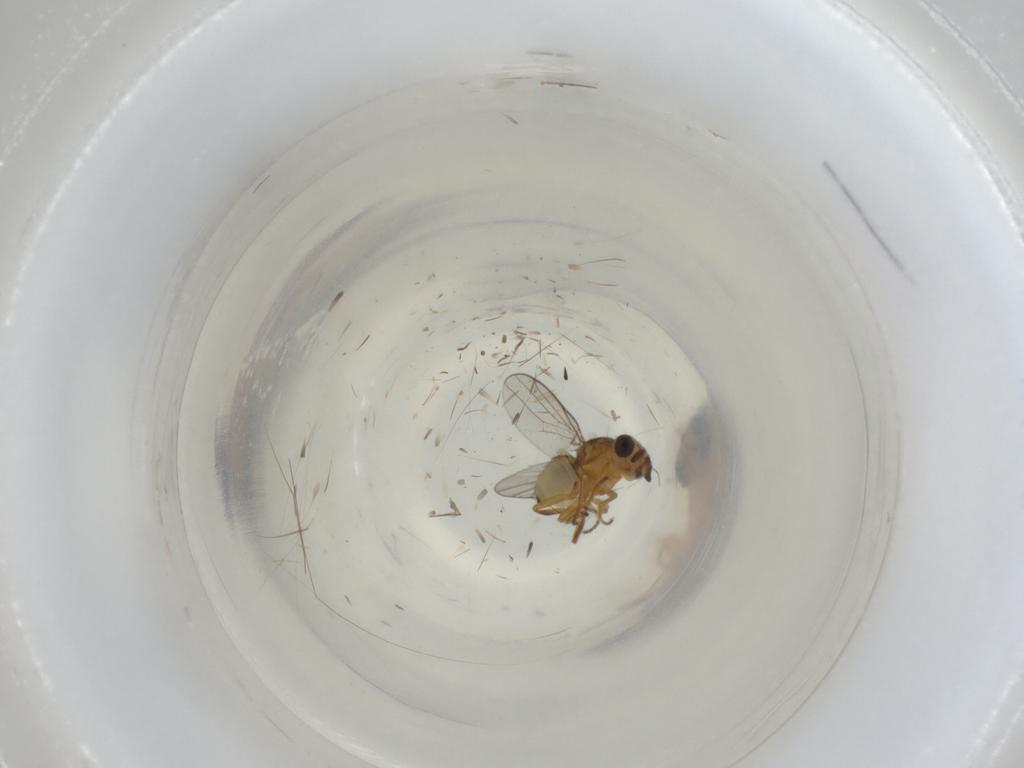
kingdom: Animalia
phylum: Arthropoda
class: Insecta
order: Diptera
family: Chloropidae
